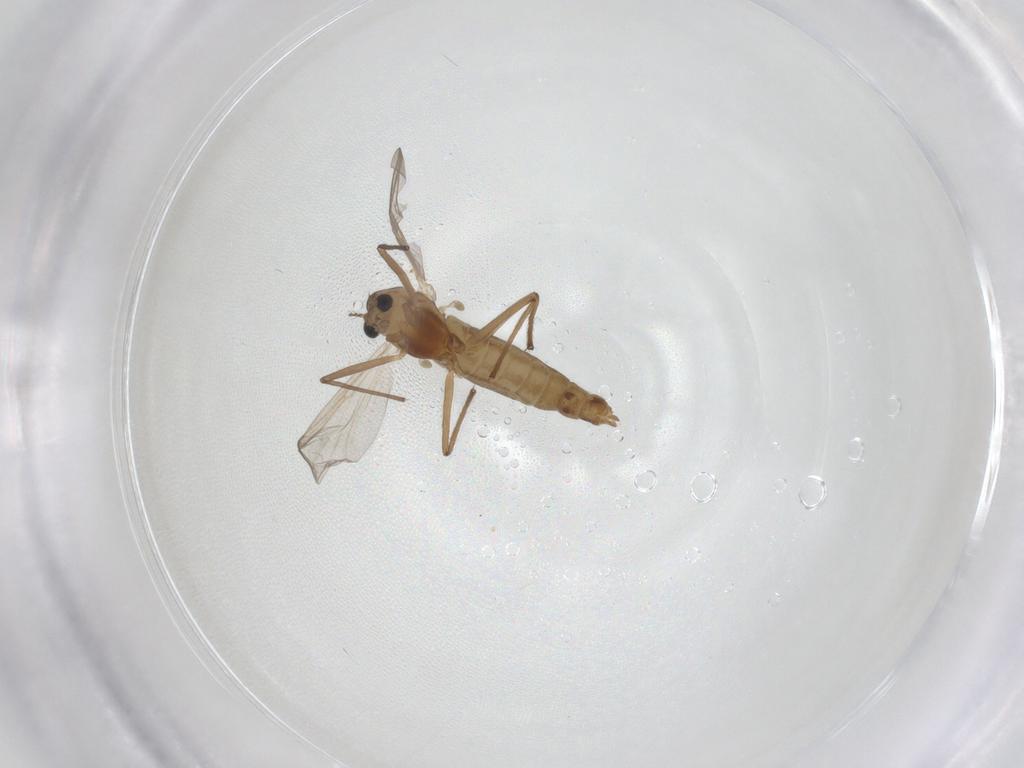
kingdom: Animalia
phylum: Arthropoda
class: Insecta
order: Diptera
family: Chironomidae
